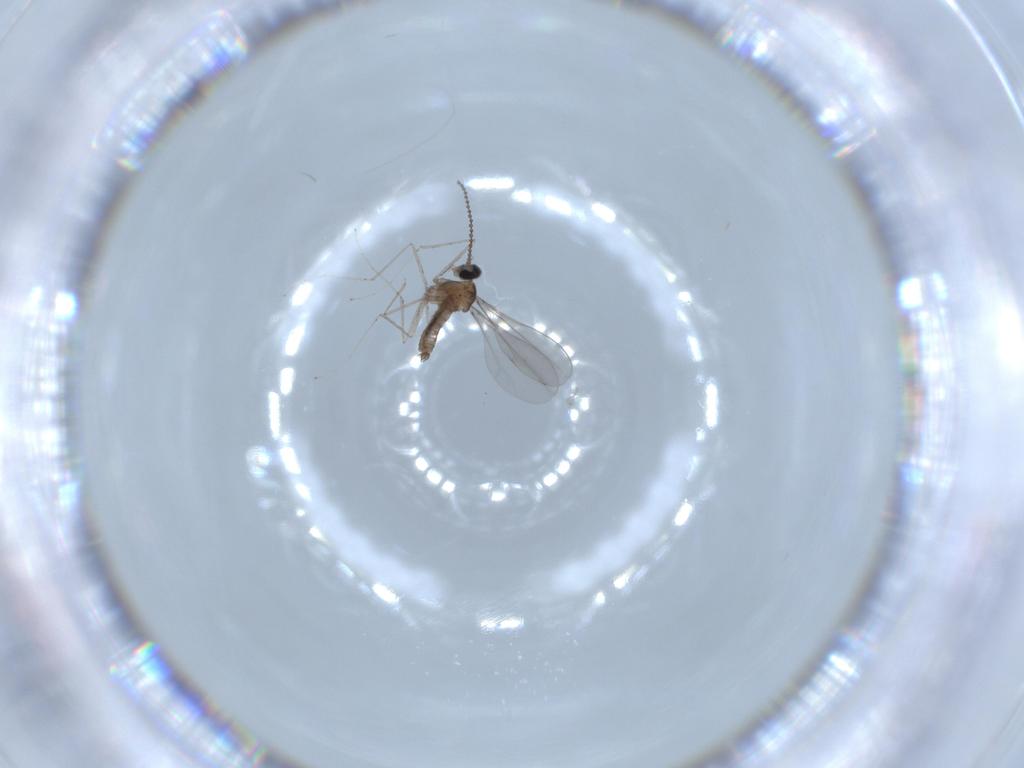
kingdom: Animalia
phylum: Arthropoda
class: Insecta
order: Diptera
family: Cecidomyiidae
